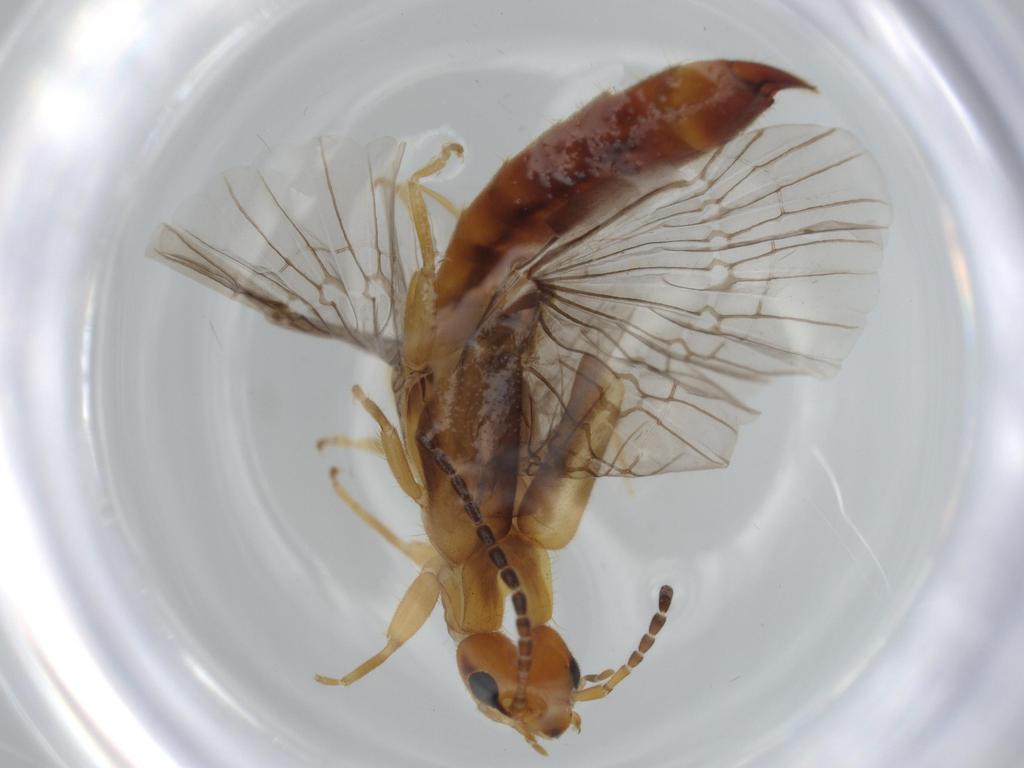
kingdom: Animalia
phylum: Arthropoda
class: Insecta
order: Dermaptera
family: Forficulidae
